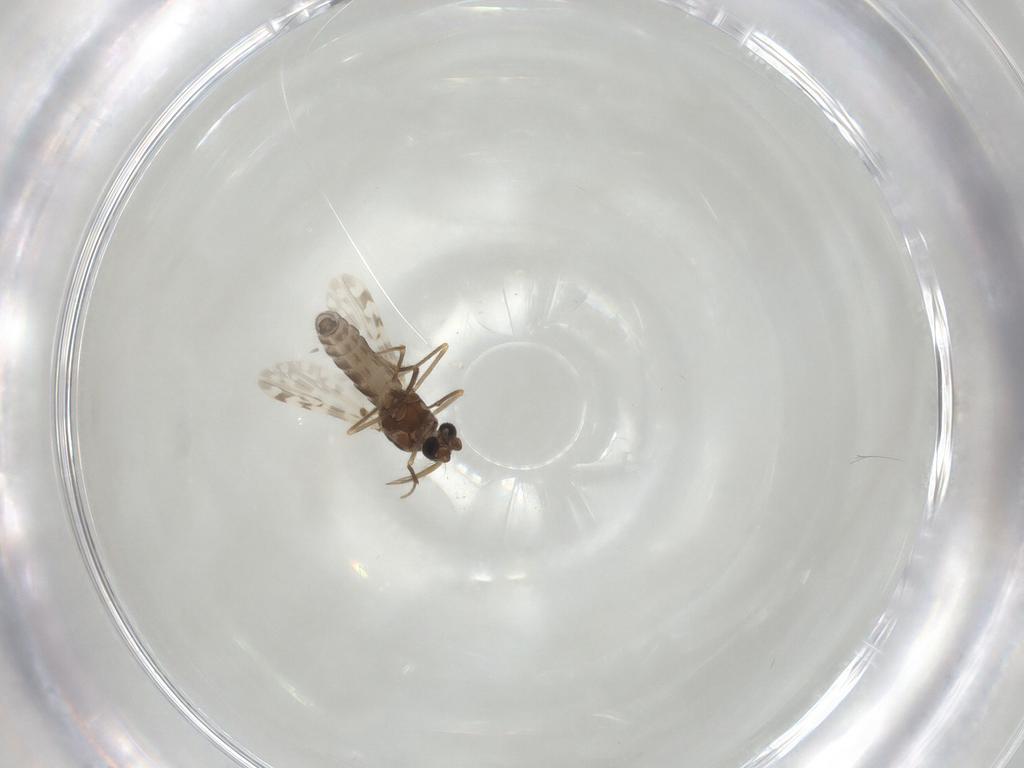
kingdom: Animalia
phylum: Arthropoda
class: Insecta
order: Diptera
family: Ceratopogonidae
